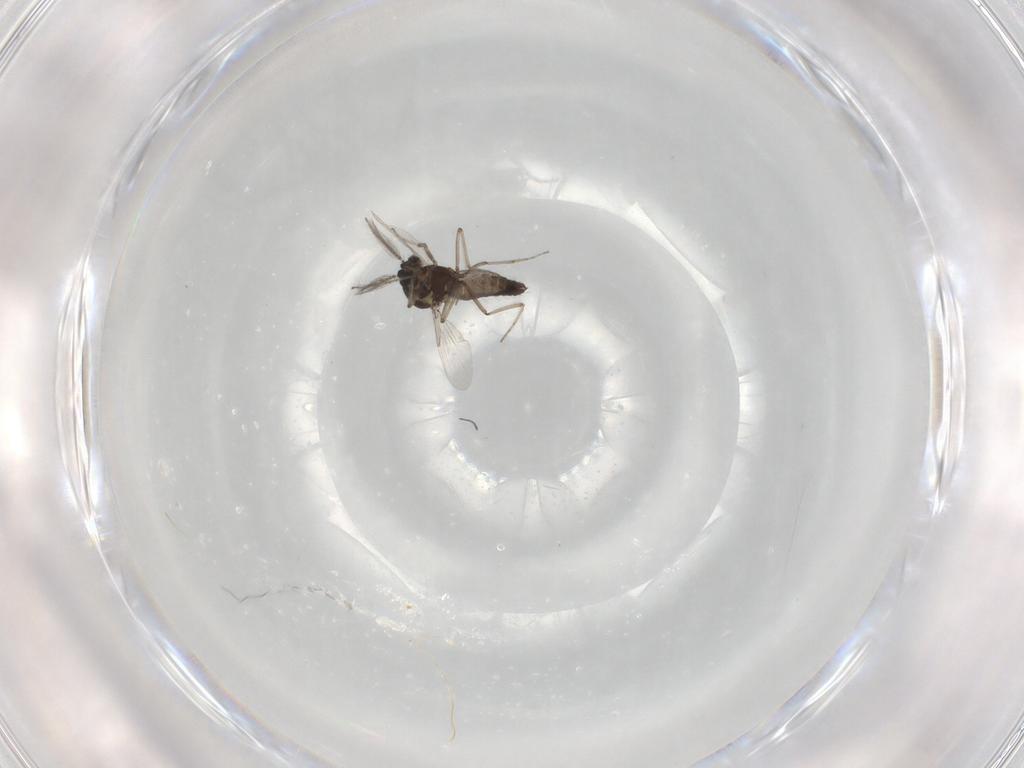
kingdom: Animalia
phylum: Arthropoda
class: Insecta
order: Diptera
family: Ceratopogonidae
